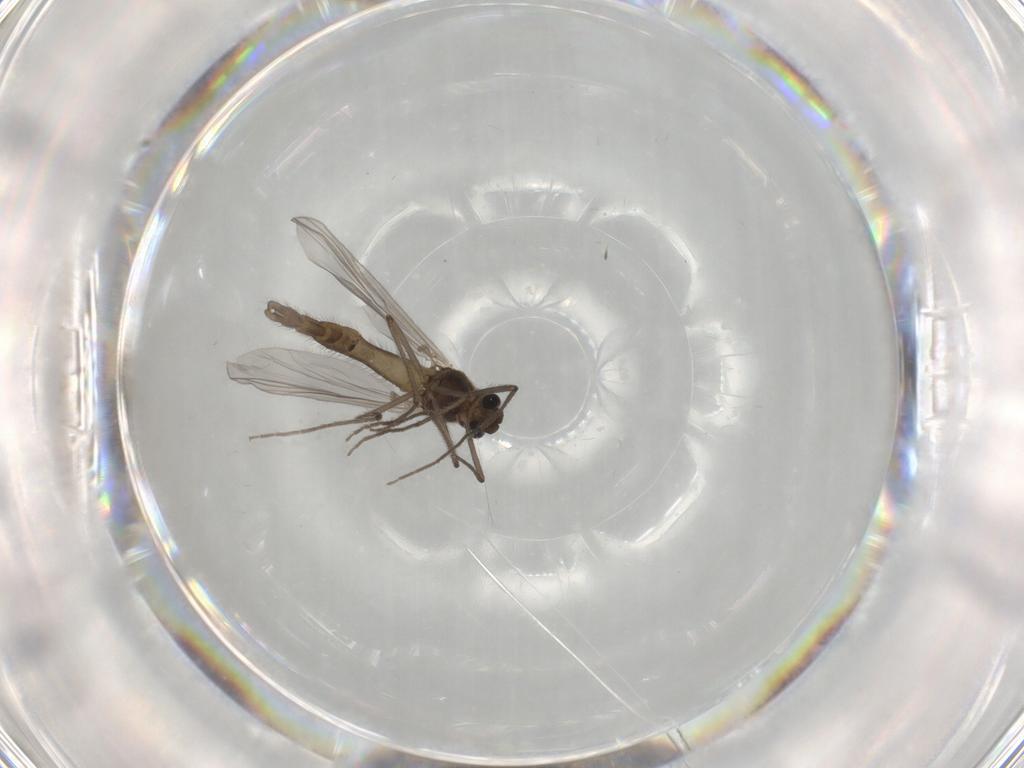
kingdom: Animalia
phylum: Arthropoda
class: Insecta
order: Diptera
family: Chironomidae
